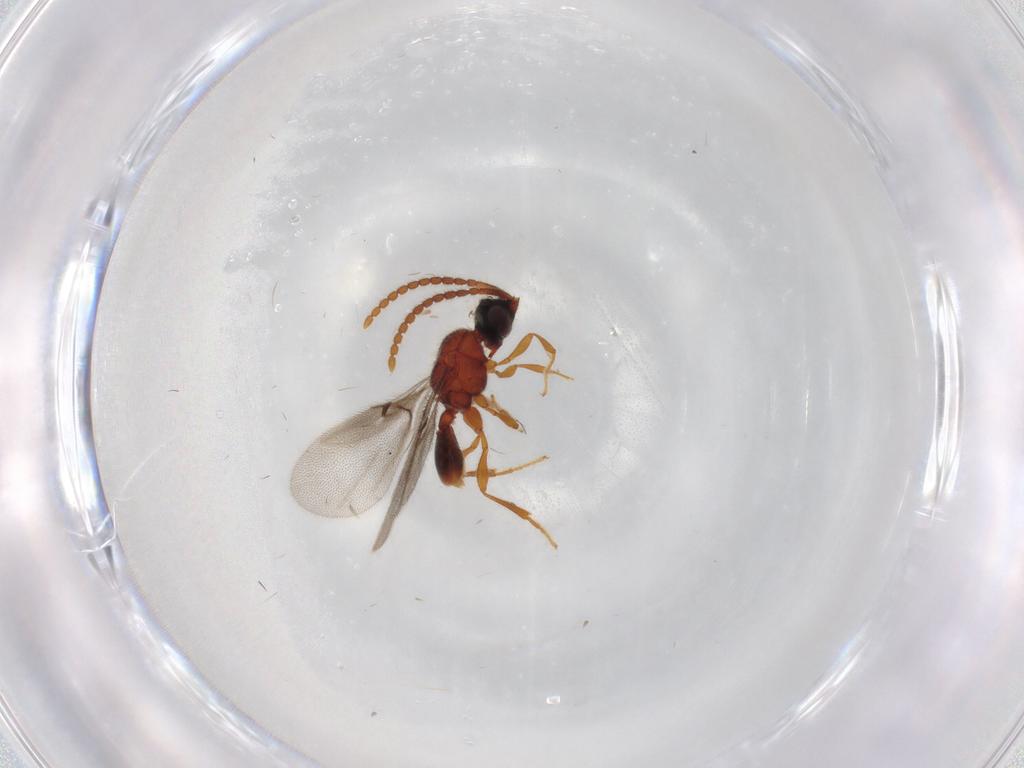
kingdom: Animalia
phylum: Arthropoda
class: Insecta
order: Hymenoptera
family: Diapriidae
